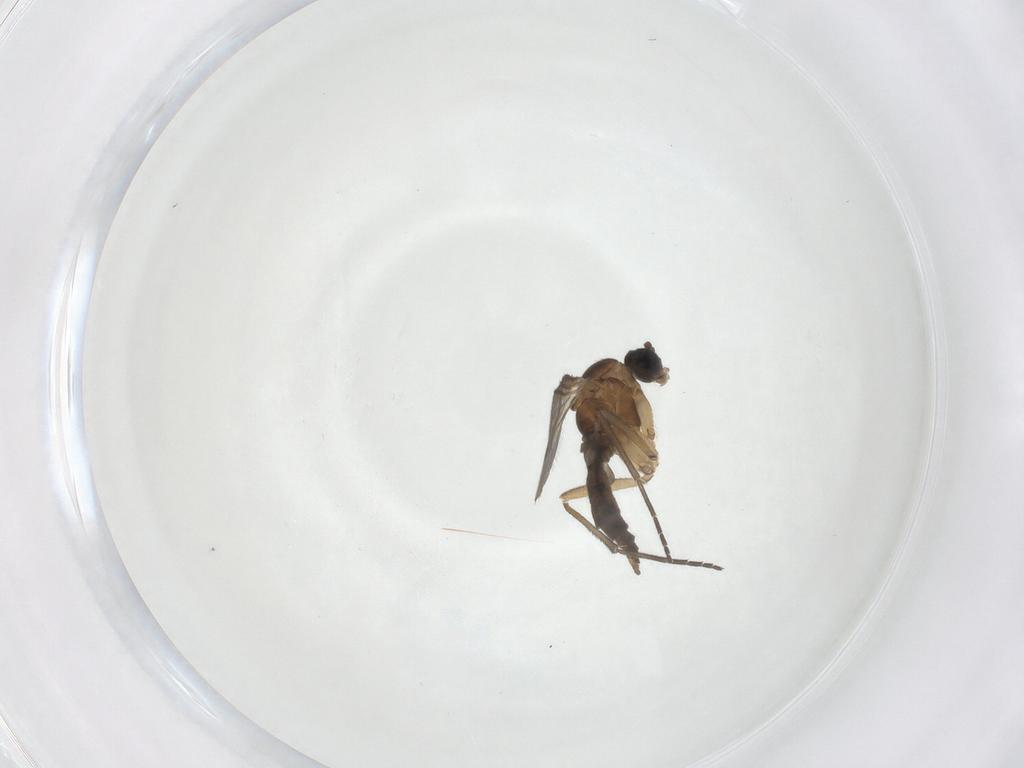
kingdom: Animalia
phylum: Arthropoda
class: Insecta
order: Diptera
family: Sciaridae
